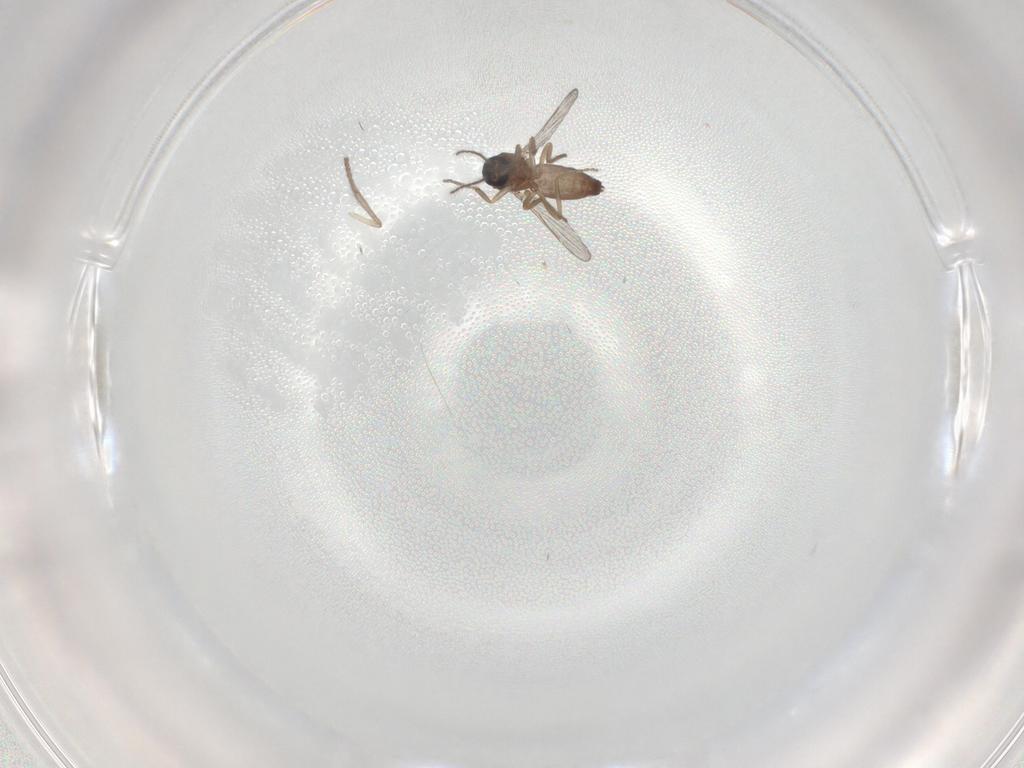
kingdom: Animalia
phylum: Arthropoda
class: Insecta
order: Diptera
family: Ceratopogonidae
